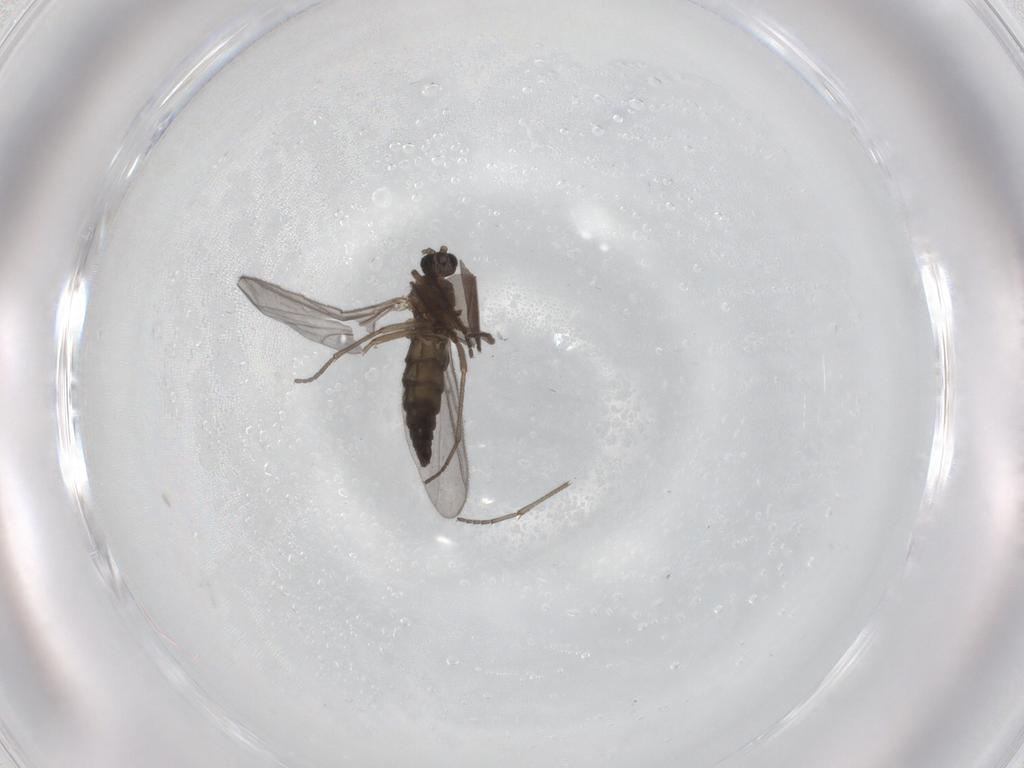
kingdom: Animalia
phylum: Arthropoda
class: Insecta
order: Diptera
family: Sciaridae
